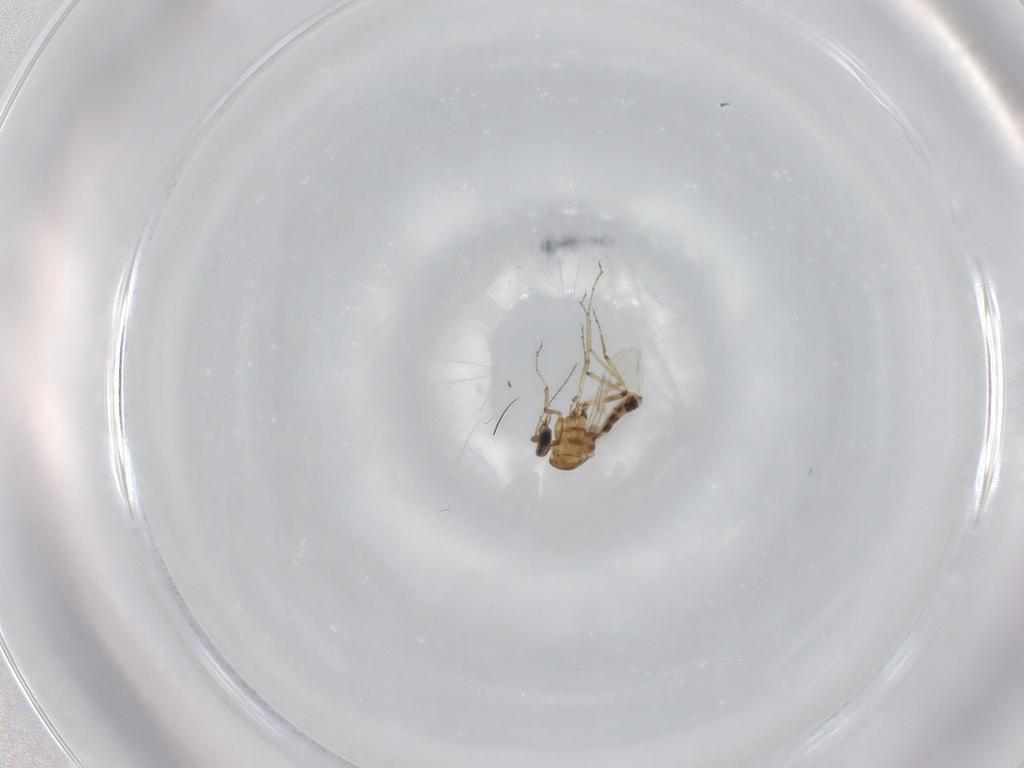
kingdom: Animalia
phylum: Arthropoda
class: Insecta
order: Diptera
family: Ceratopogonidae
